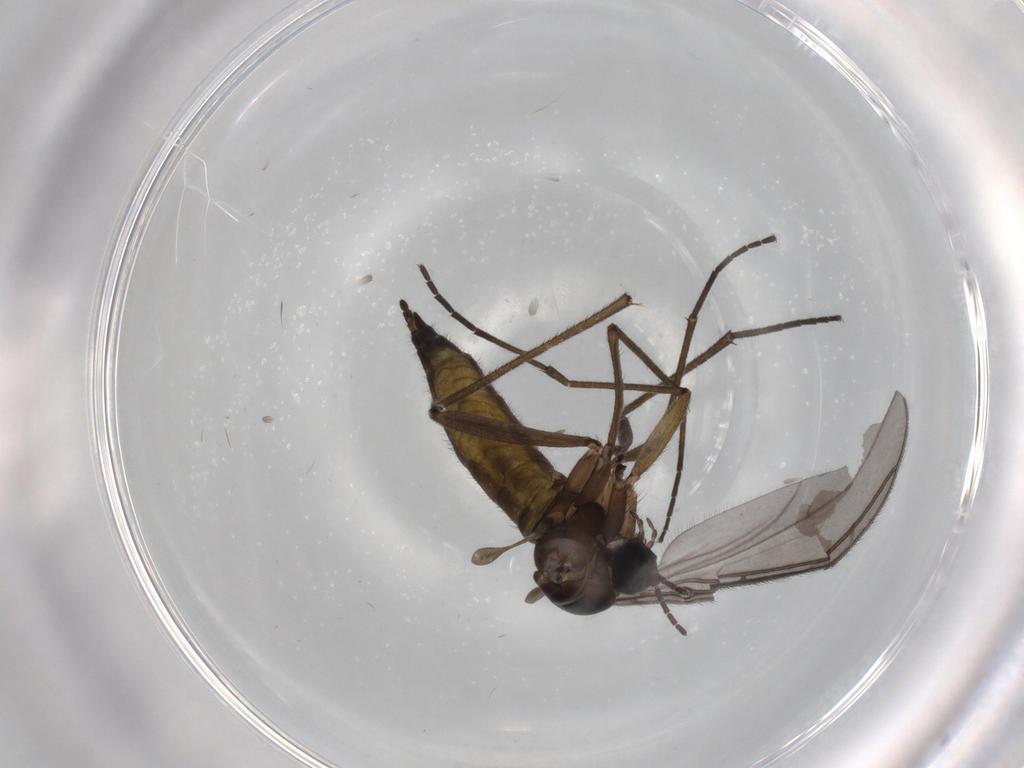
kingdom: Animalia
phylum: Arthropoda
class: Insecta
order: Diptera
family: Sciaridae
